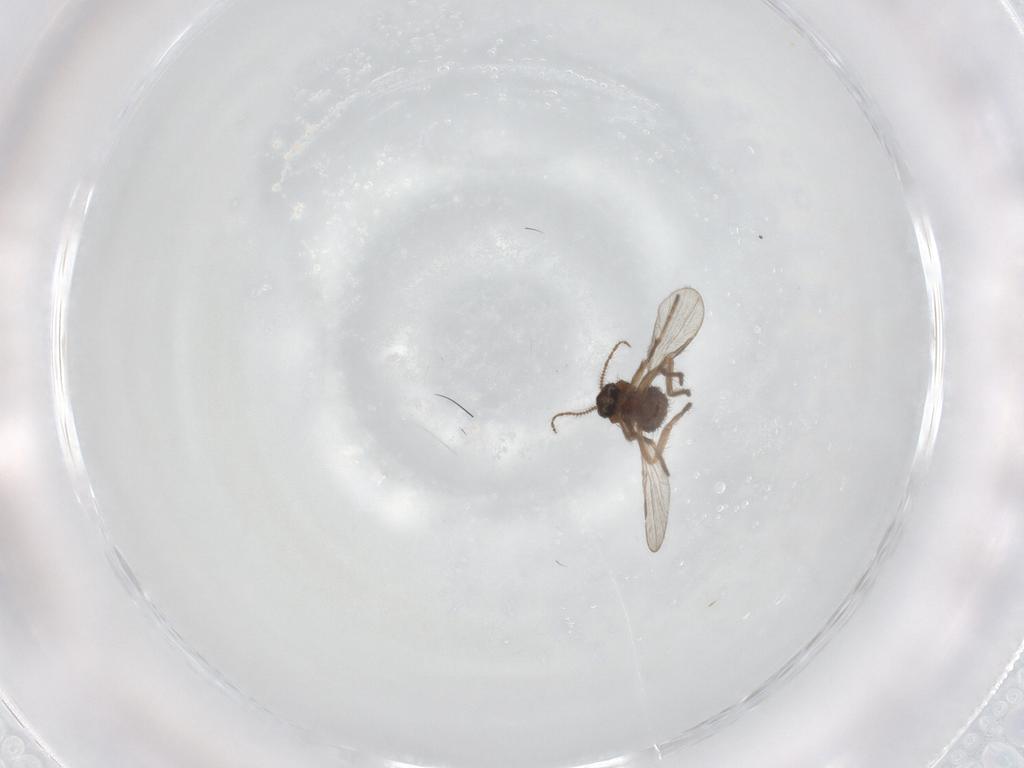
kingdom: Animalia
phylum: Arthropoda
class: Insecta
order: Diptera
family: Ceratopogonidae
